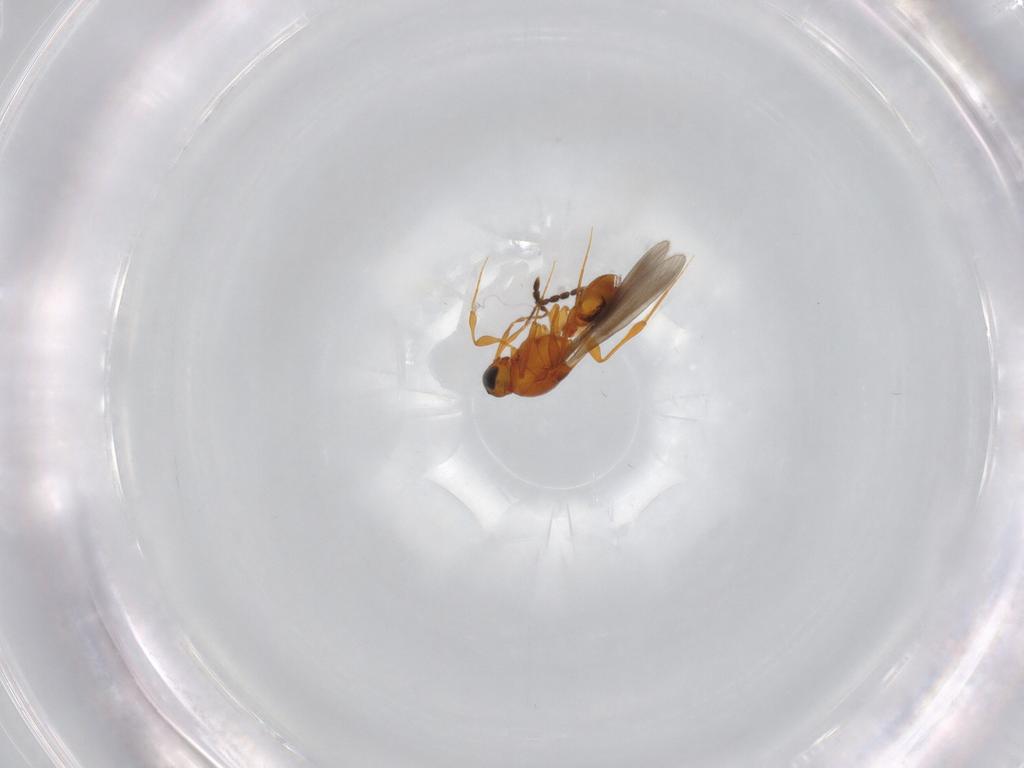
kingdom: Animalia
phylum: Arthropoda
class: Insecta
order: Hymenoptera
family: Platygastridae
